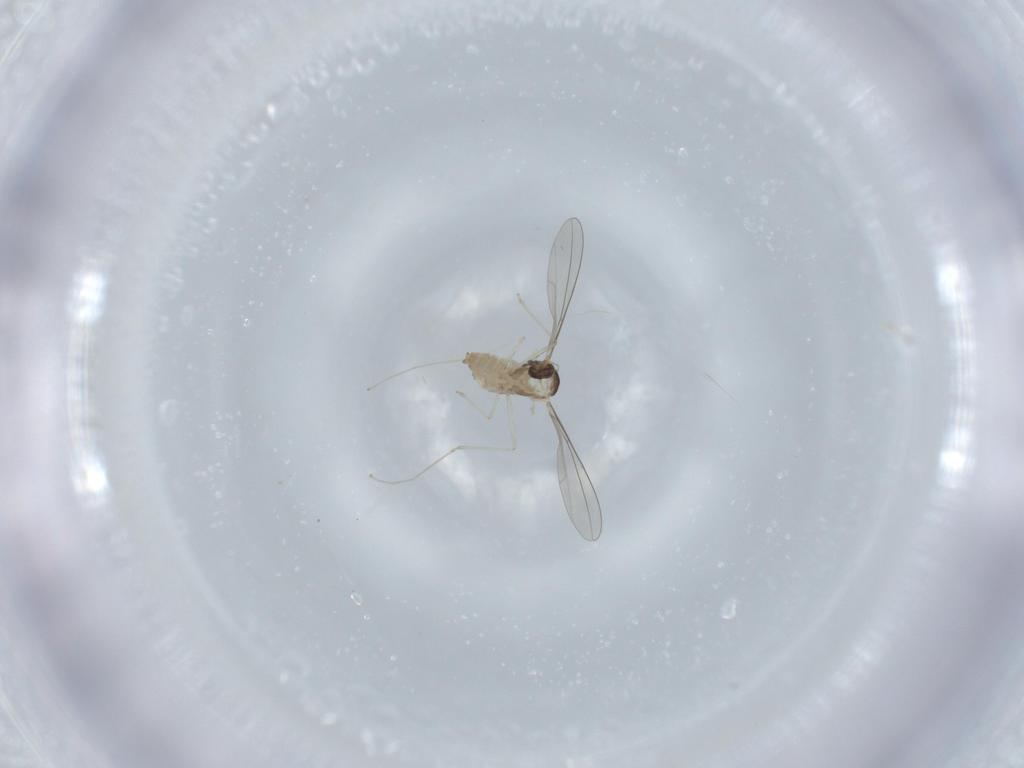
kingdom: Animalia
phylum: Arthropoda
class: Insecta
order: Diptera
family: Cecidomyiidae
